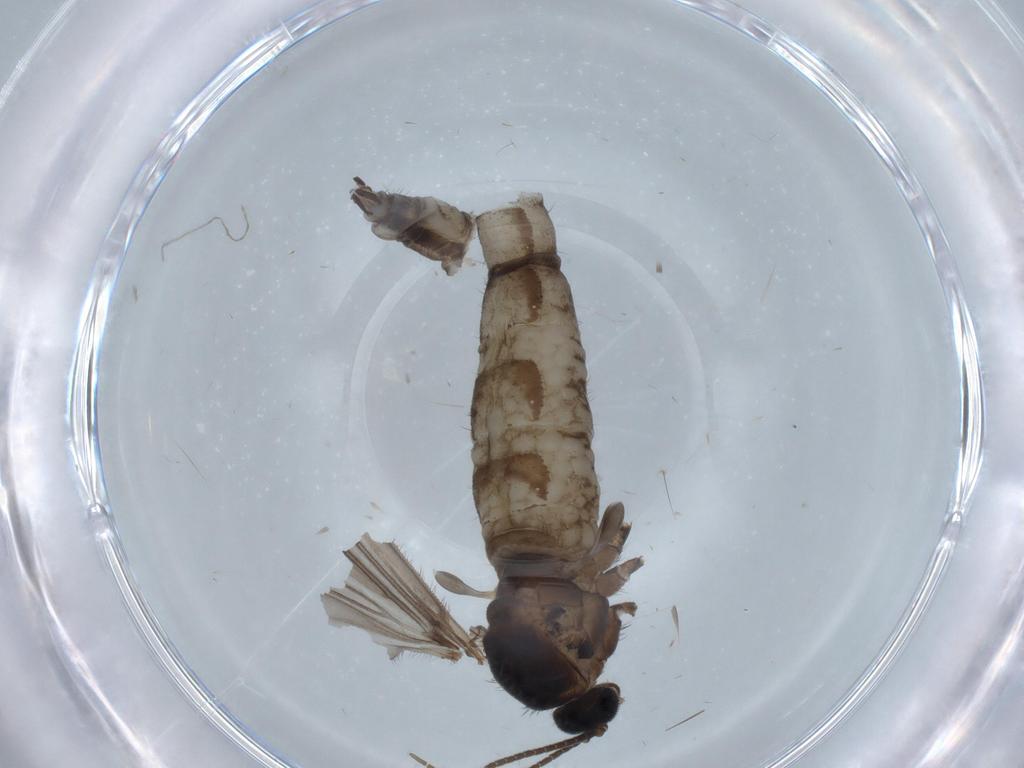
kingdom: Animalia
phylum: Arthropoda
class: Insecta
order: Diptera
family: Sciaridae
